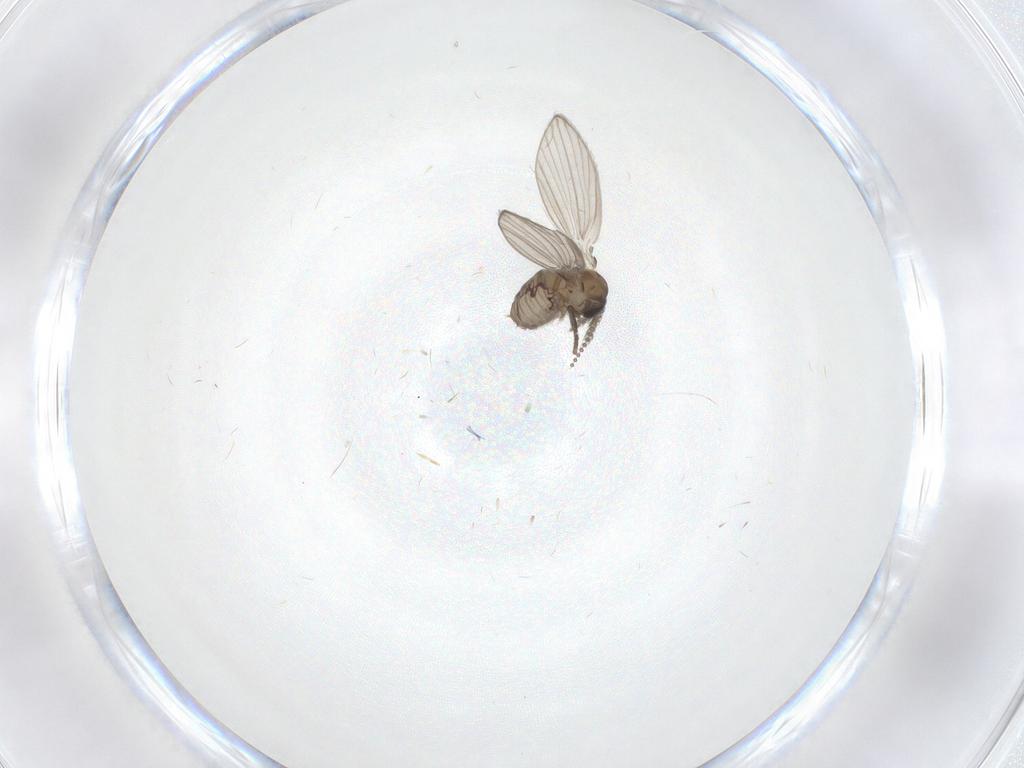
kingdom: Animalia
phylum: Arthropoda
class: Insecta
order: Diptera
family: Psychodidae
